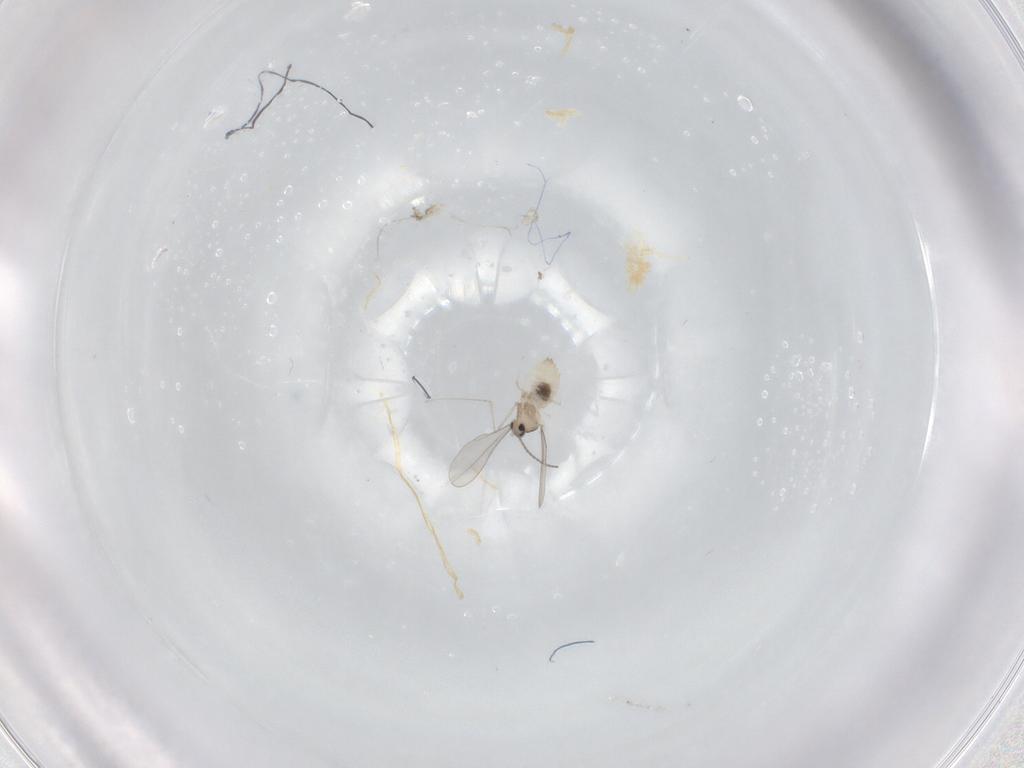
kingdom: Animalia
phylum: Arthropoda
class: Insecta
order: Diptera
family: Cecidomyiidae
